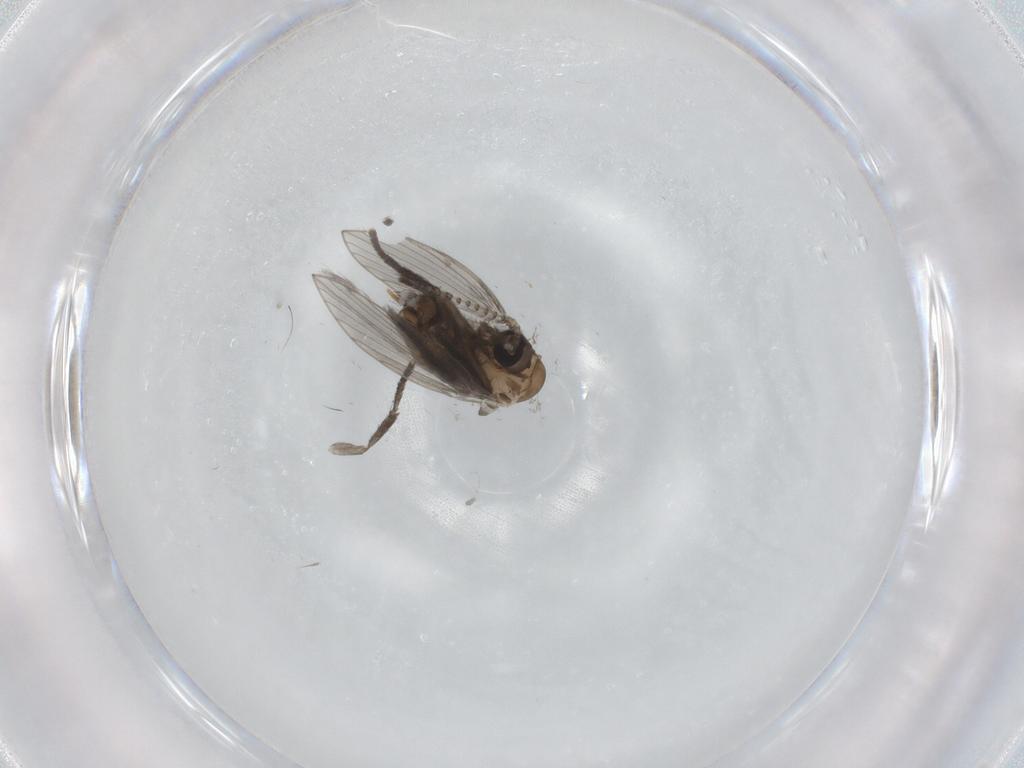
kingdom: Animalia
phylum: Arthropoda
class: Insecta
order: Diptera
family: Psychodidae
